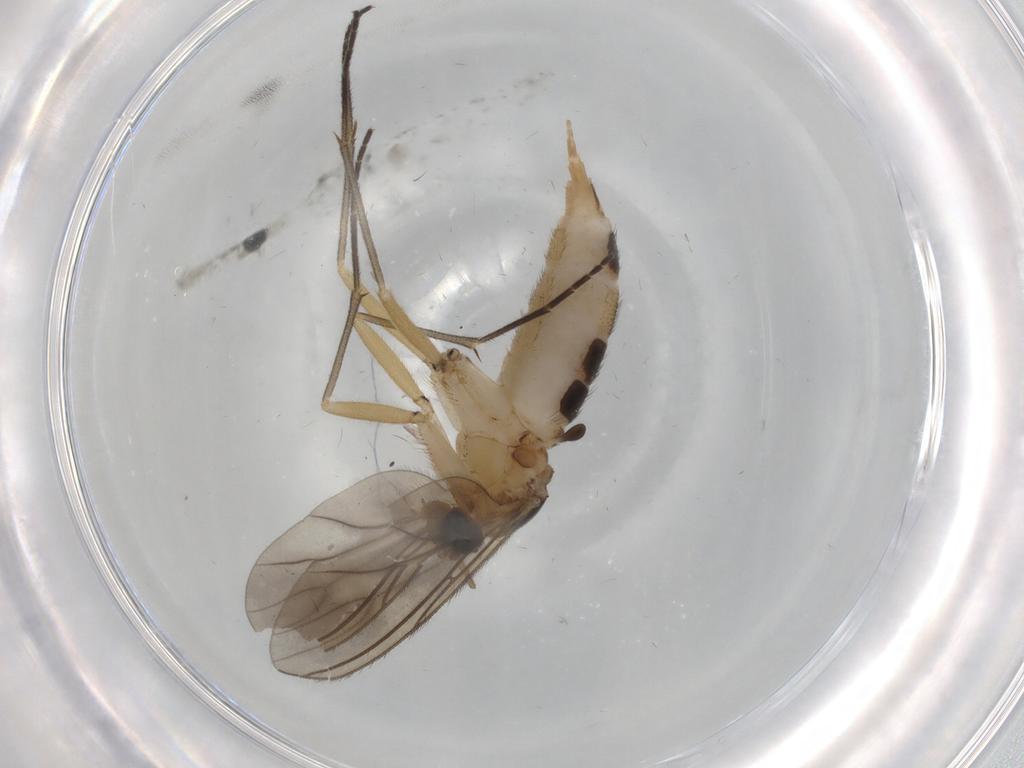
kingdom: Animalia
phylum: Arthropoda
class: Insecta
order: Diptera
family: Sciaridae
